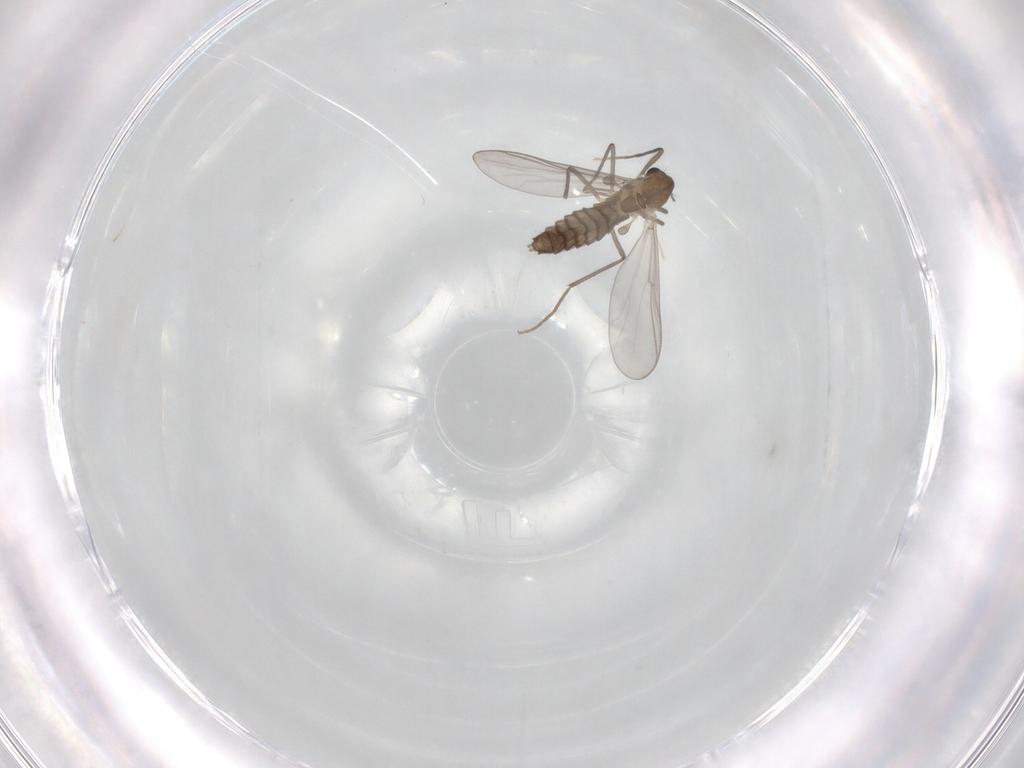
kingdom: Animalia
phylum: Arthropoda
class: Insecta
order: Diptera
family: Chironomidae
